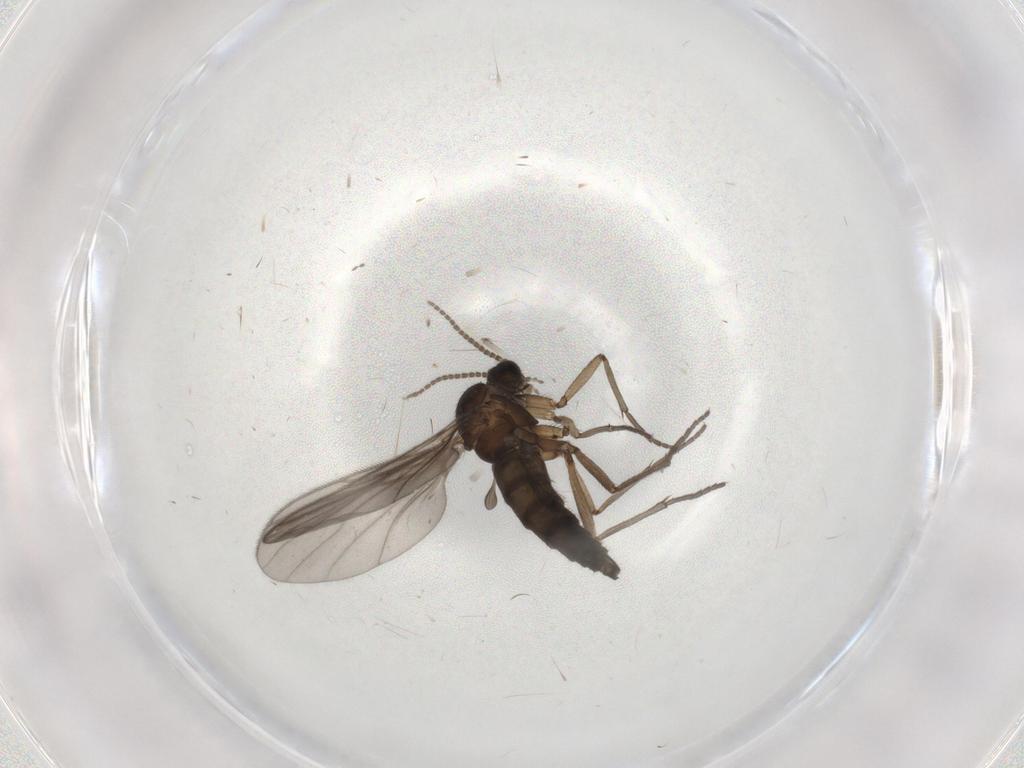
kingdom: Animalia
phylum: Arthropoda
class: Insecta
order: Diptera
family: Sciaridae
